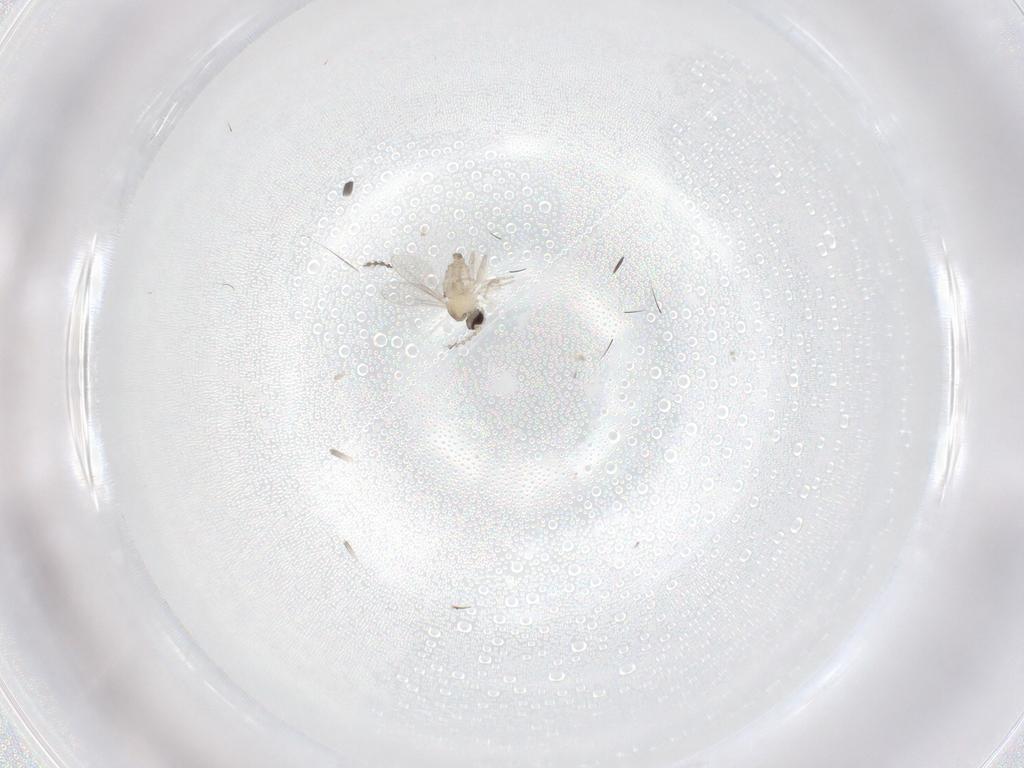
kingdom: Animalia
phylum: Arthropoda
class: Insecta
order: Diptera
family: Cecidomyiidae
